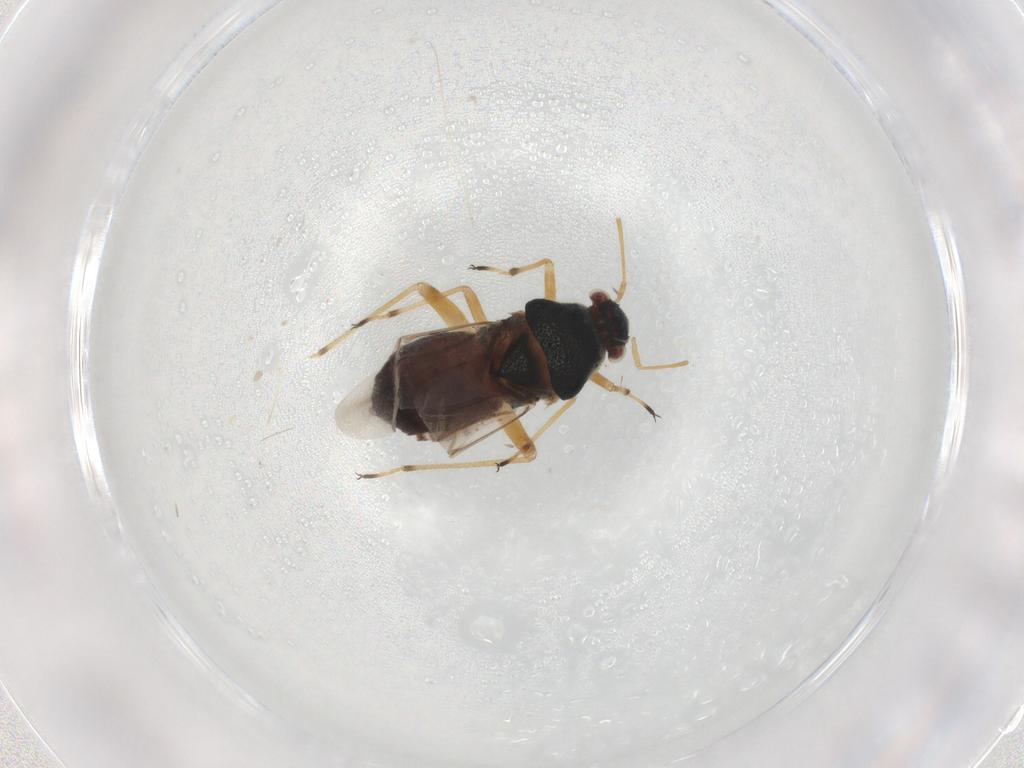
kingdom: Animalia
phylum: Arthropoda
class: Insecta
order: Hemiptera
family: Miridae
